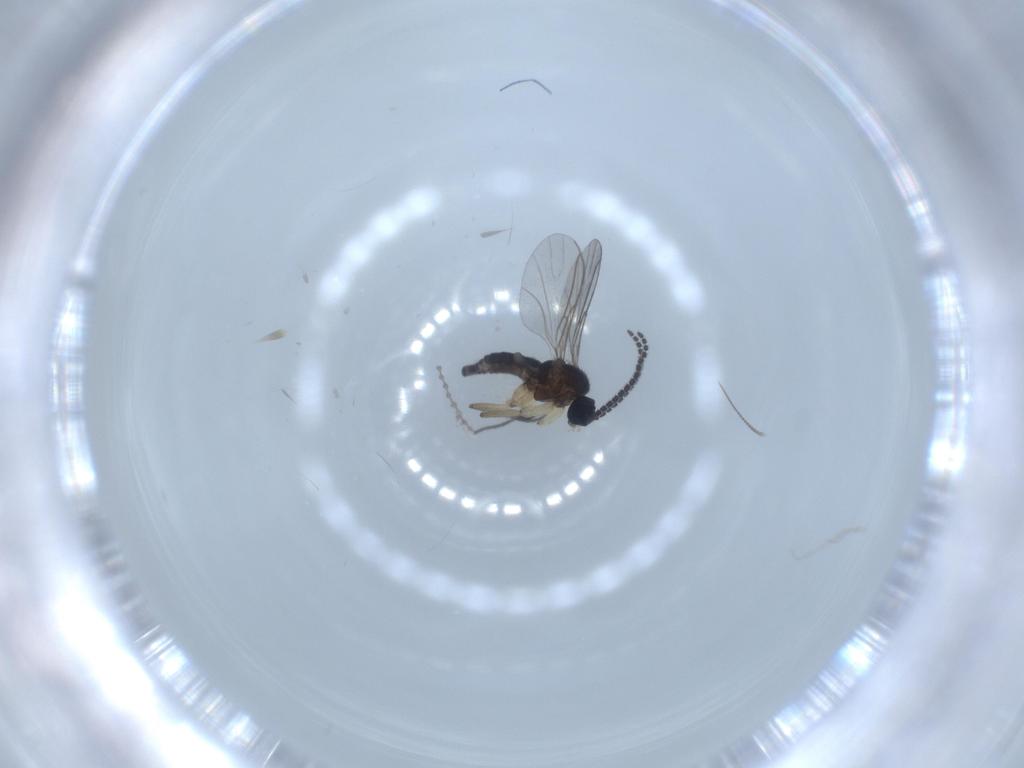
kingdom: Animalia
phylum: Arthropoda
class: Insecta
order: Diptera
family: Sciaridae
